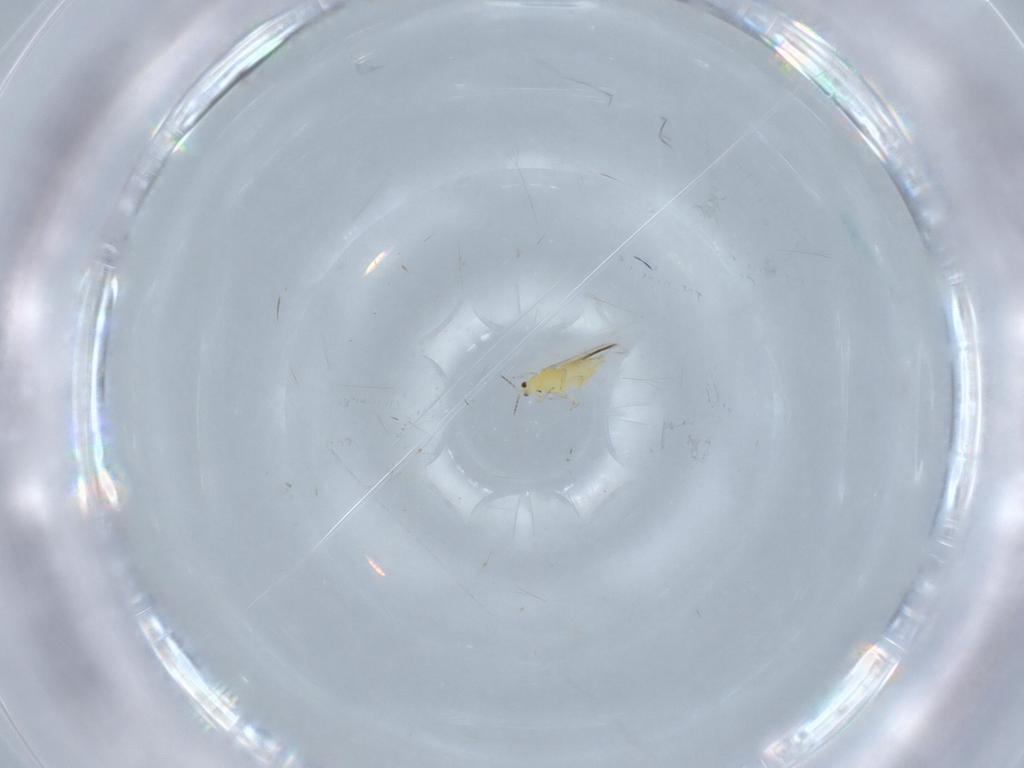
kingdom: Animalia
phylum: Arthropoda
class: Insecta
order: Thysanoptera
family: Thripidae
